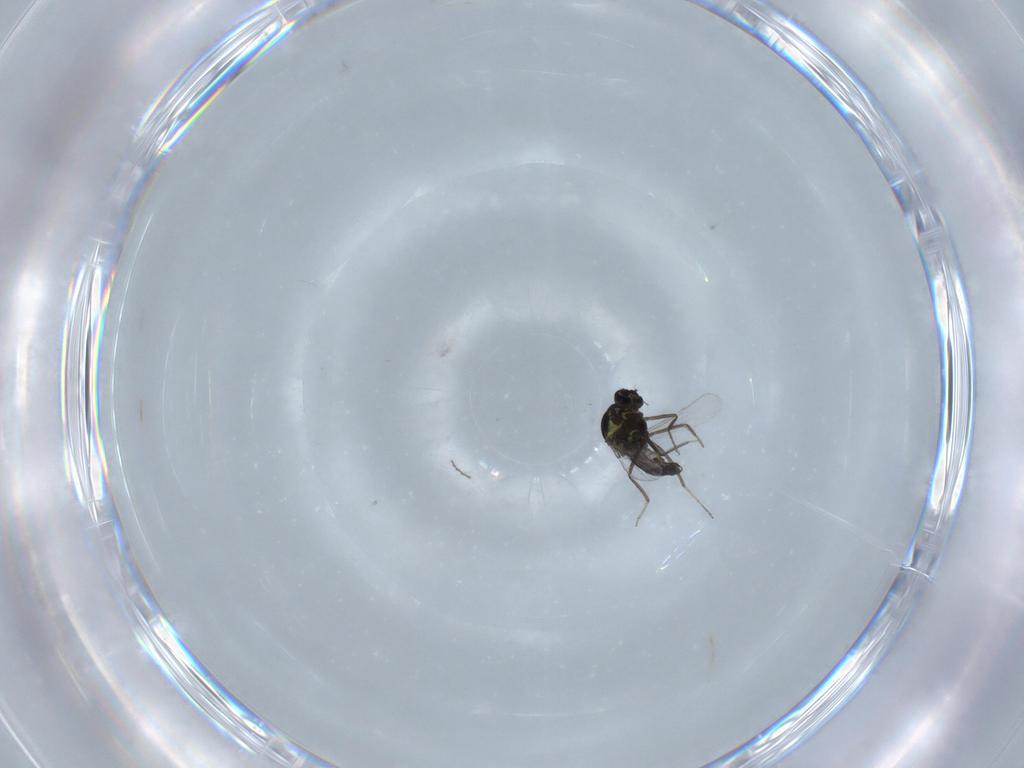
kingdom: Animalia
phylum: Arthropoda
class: Insecta
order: Diptera
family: Ceratopogonidae
